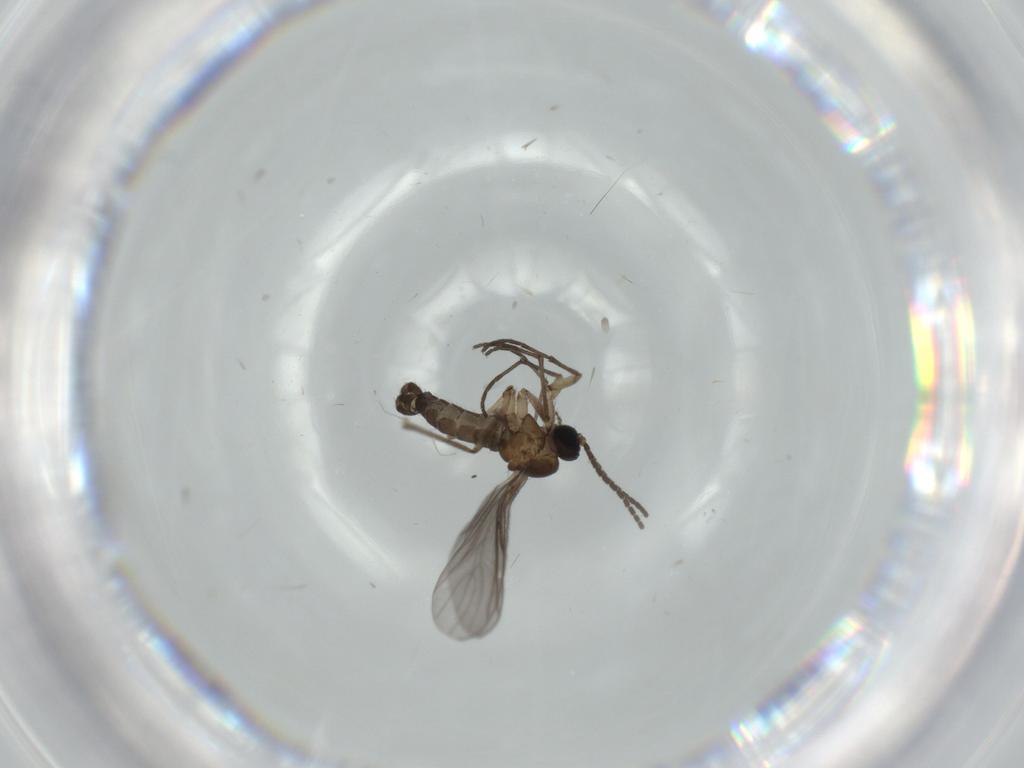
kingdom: Animalia
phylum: Arthropoda
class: Insecta
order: Diptera
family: Sciaridae
